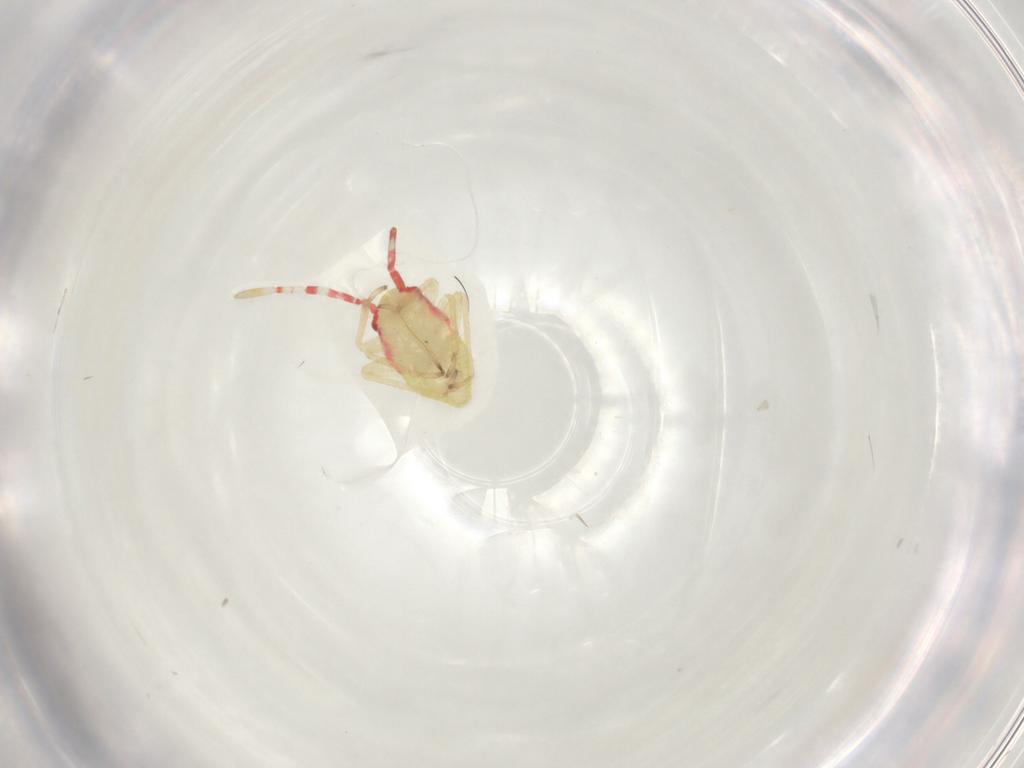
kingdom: Animalia
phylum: Arthropoda
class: Insecta
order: Hemiptera
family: Miridae
